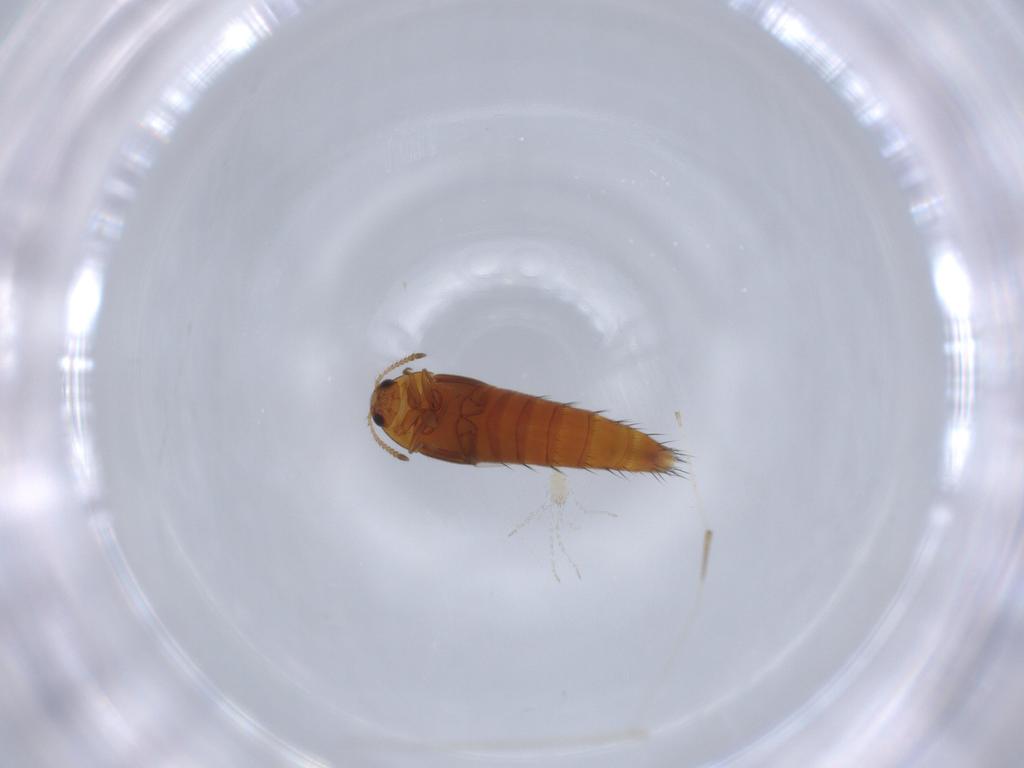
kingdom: Animalia
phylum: Arthropoda
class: Insecta
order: Coleoptera
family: Staphylinidae
